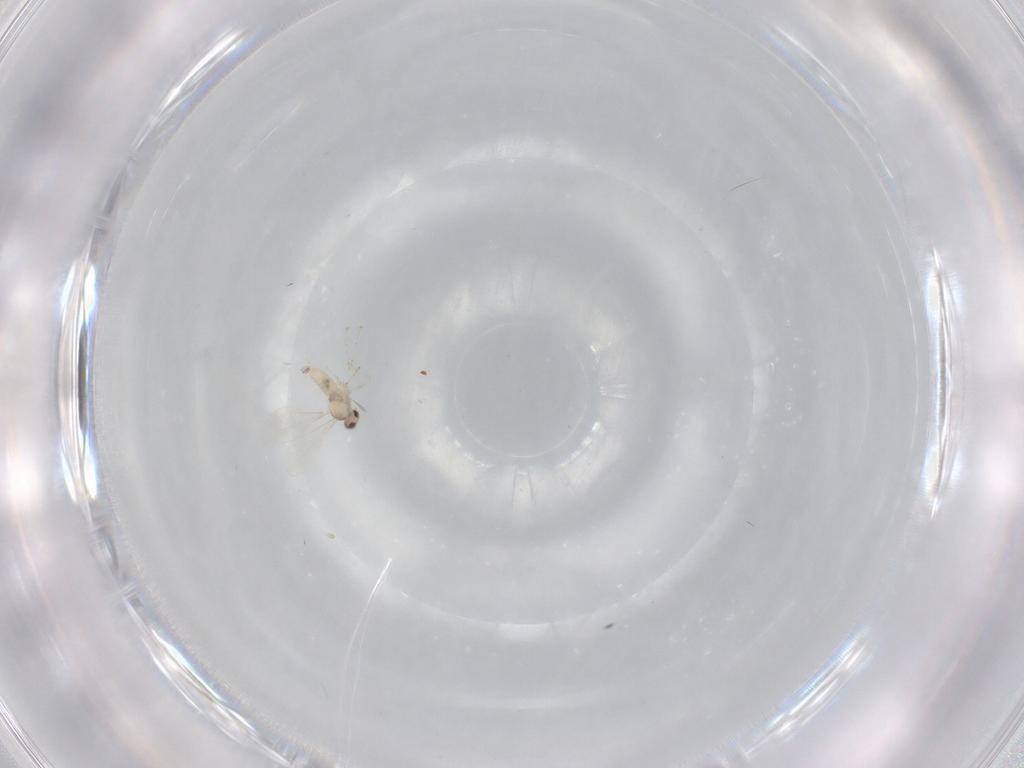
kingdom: Animalia
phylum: Arthropoda
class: Insecta
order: Diptera
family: Cecidomyiidae
